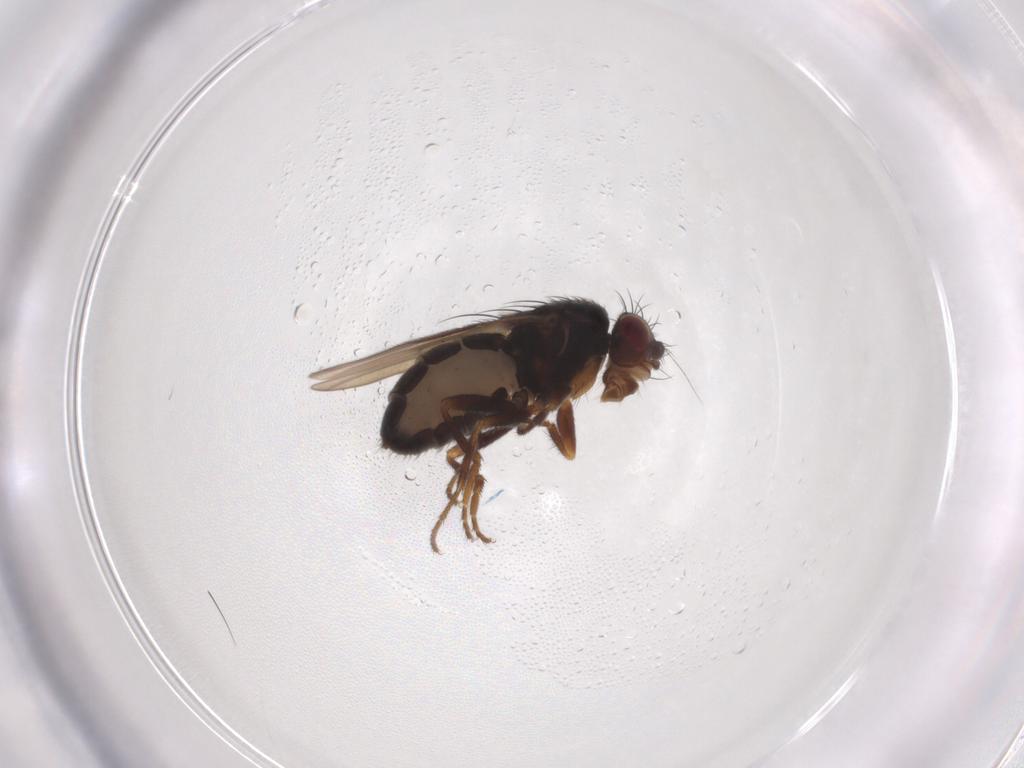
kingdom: Animalia
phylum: Arthropoda
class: Insecta
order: Diptera
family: Sphaeroceridae
